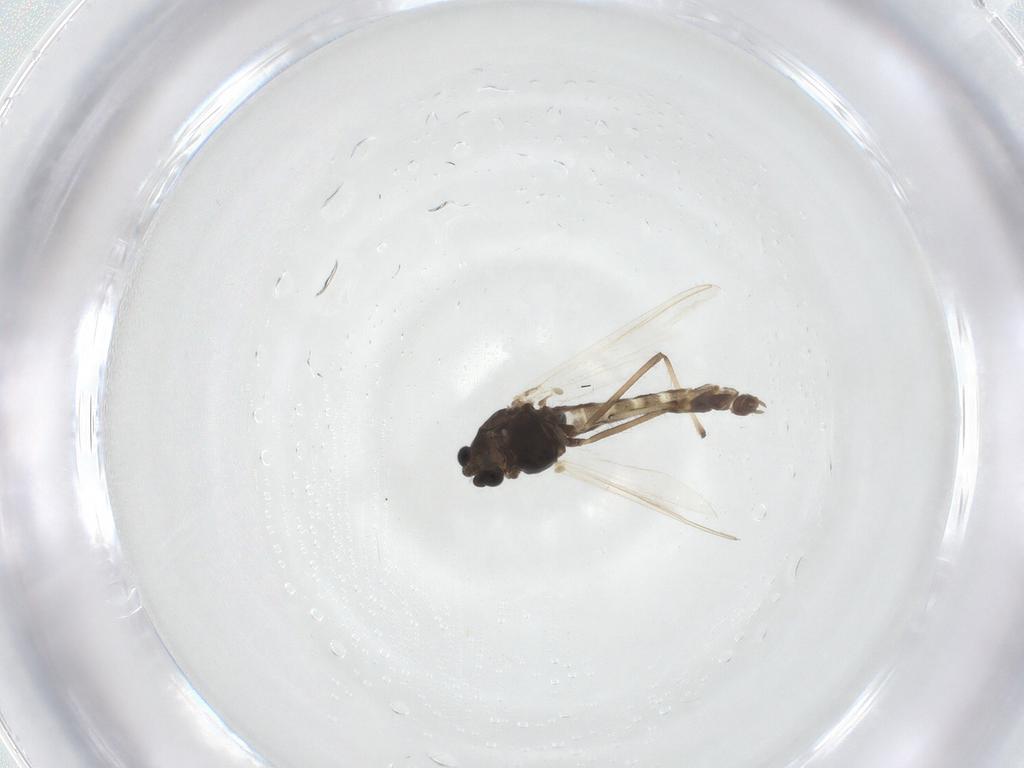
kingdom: Animalia
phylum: Arthropoda
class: Insecta
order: Diptera
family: Chironomidae
